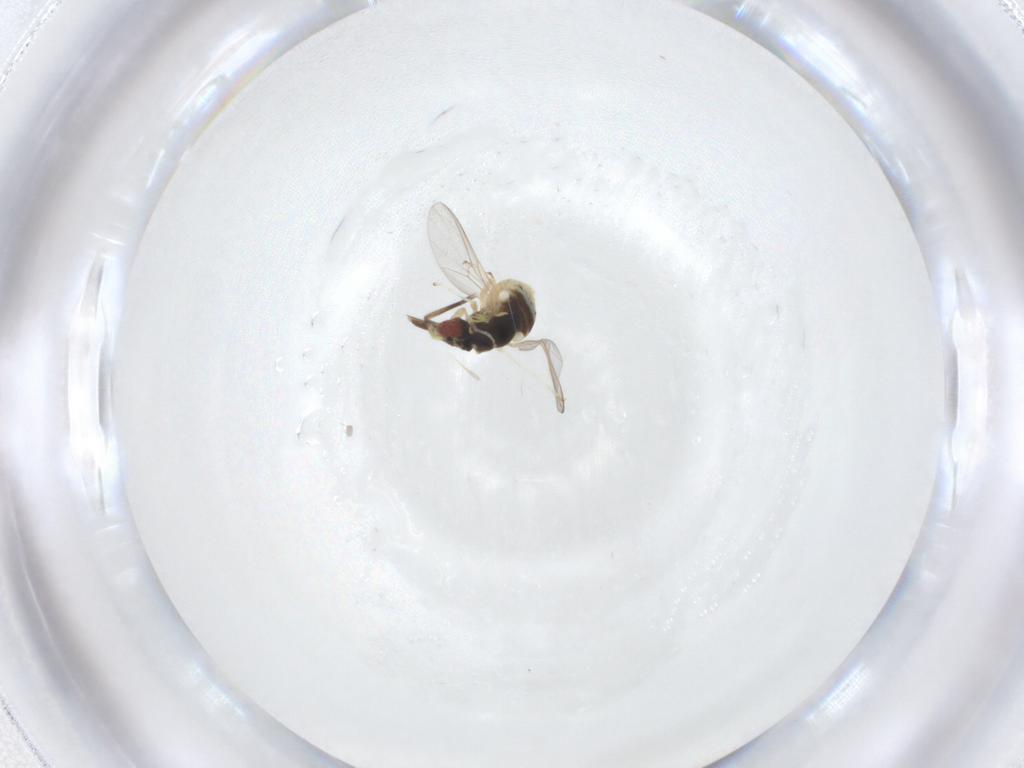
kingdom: Animalia
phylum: Arthropoda
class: Insecta
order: Diptera
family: Bombyliidae
